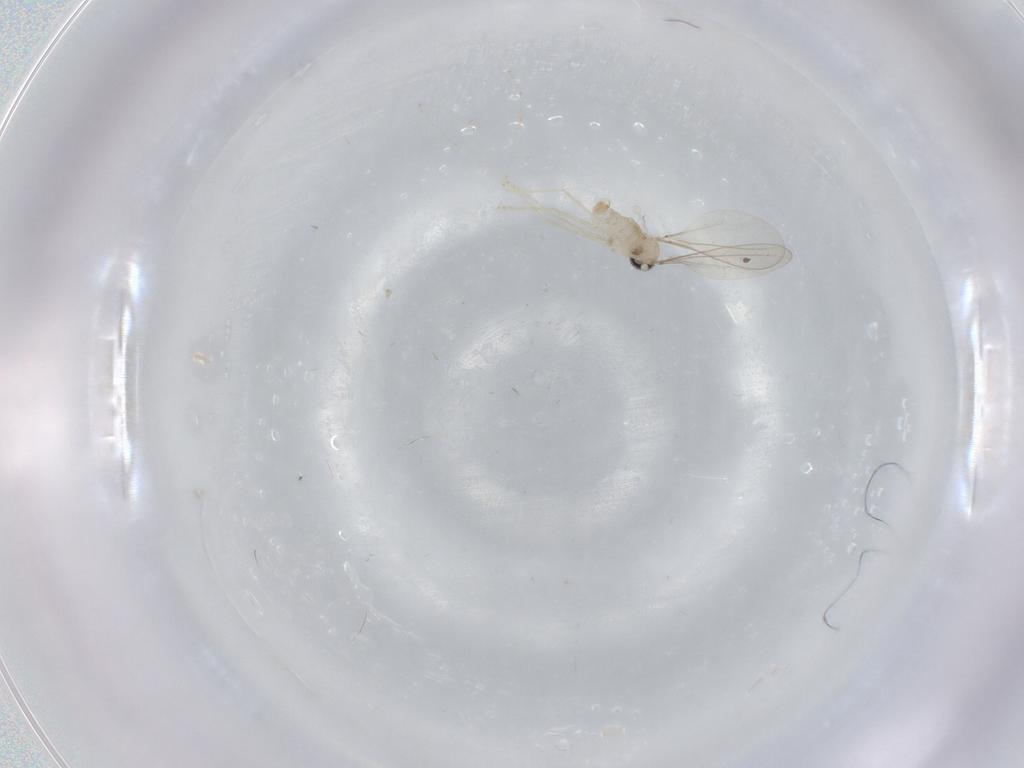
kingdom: Animalia
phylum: Arthropoda
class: Insecta
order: Diptera
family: Cecidomyiidae
